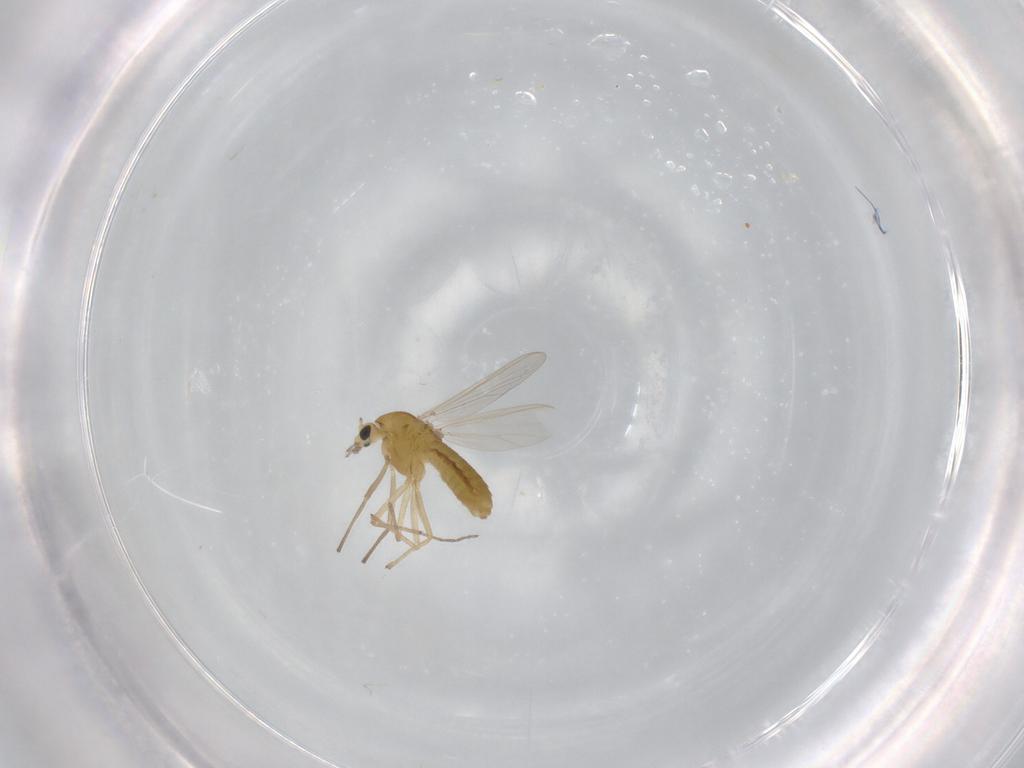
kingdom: Animalia
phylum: Arthropoda
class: Insecta
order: Diptera
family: Chironomidae
